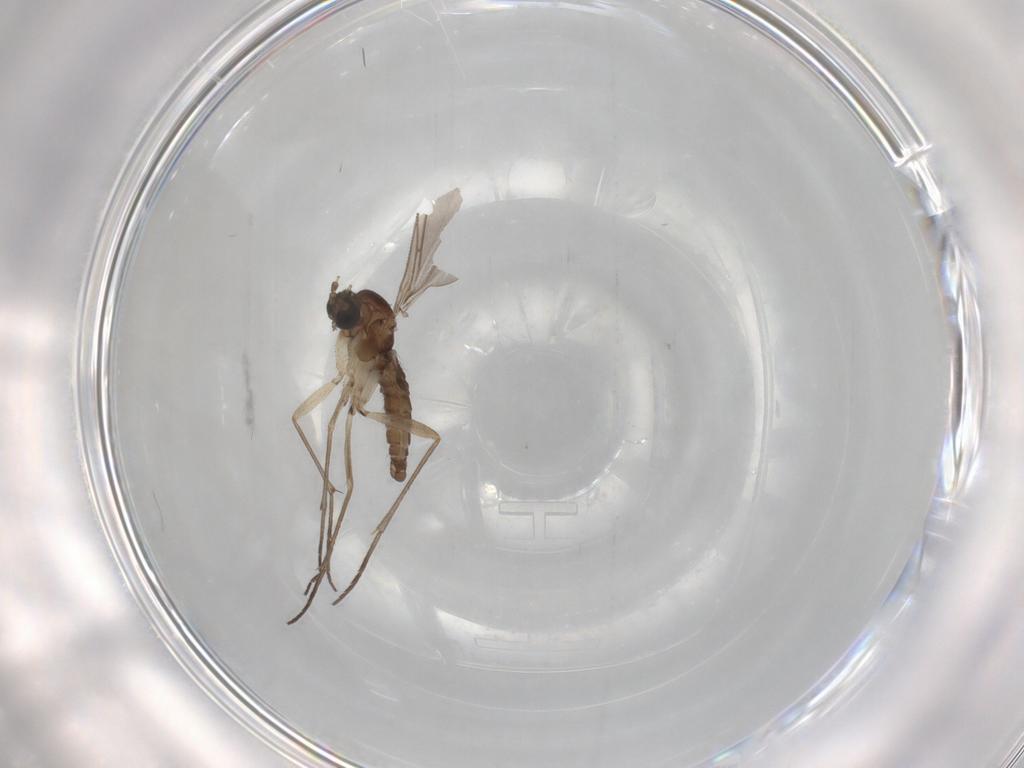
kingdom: Animalia
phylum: Arthropoda
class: Insecta
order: Diptera
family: Sciaridae
